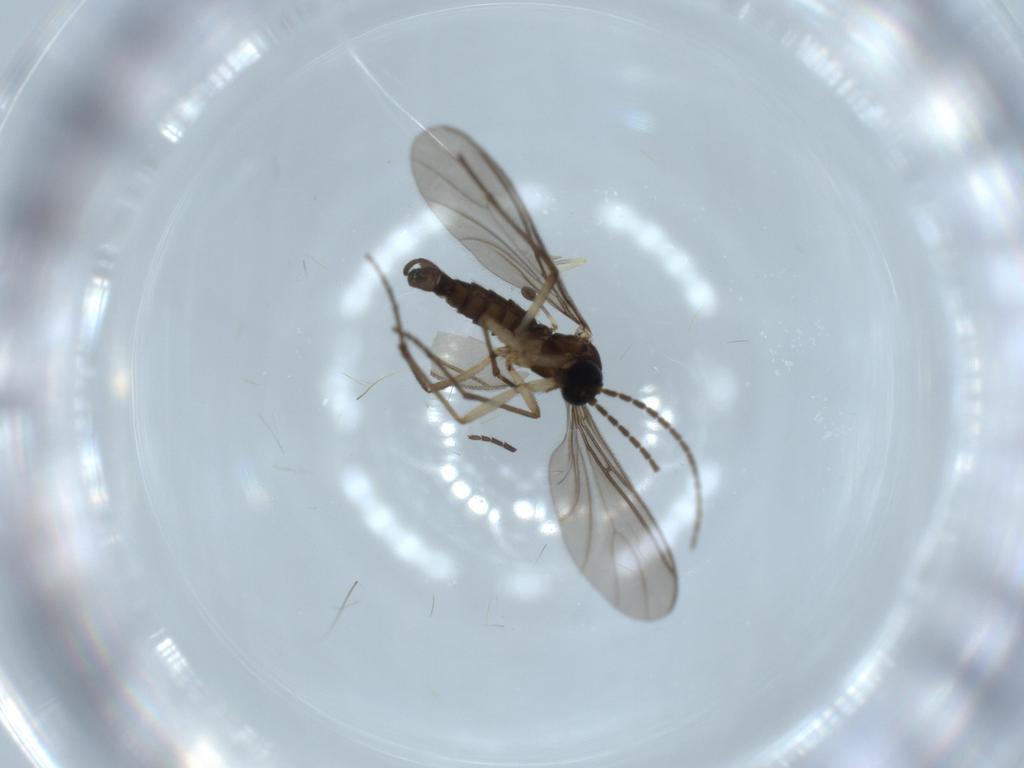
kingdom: Animalia
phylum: Arthropoda
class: Insecta
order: Diptera
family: Sciaridae
